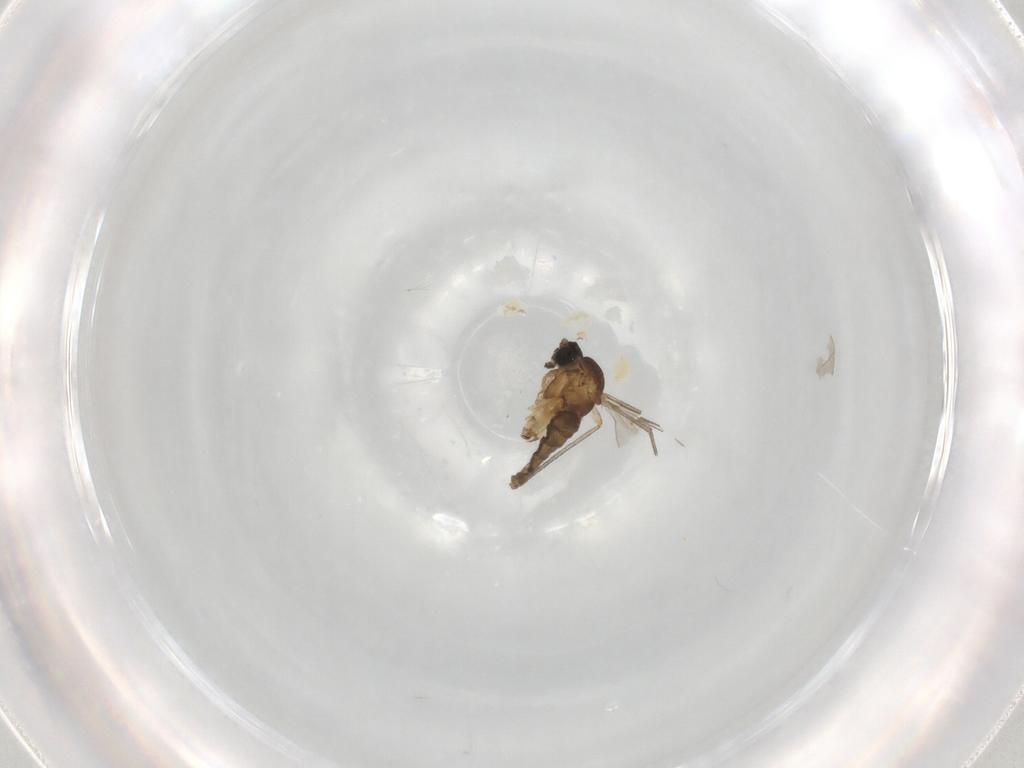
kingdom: Animalia
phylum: Arthropoda
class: Insecta
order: Diptera
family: Sciaridae
